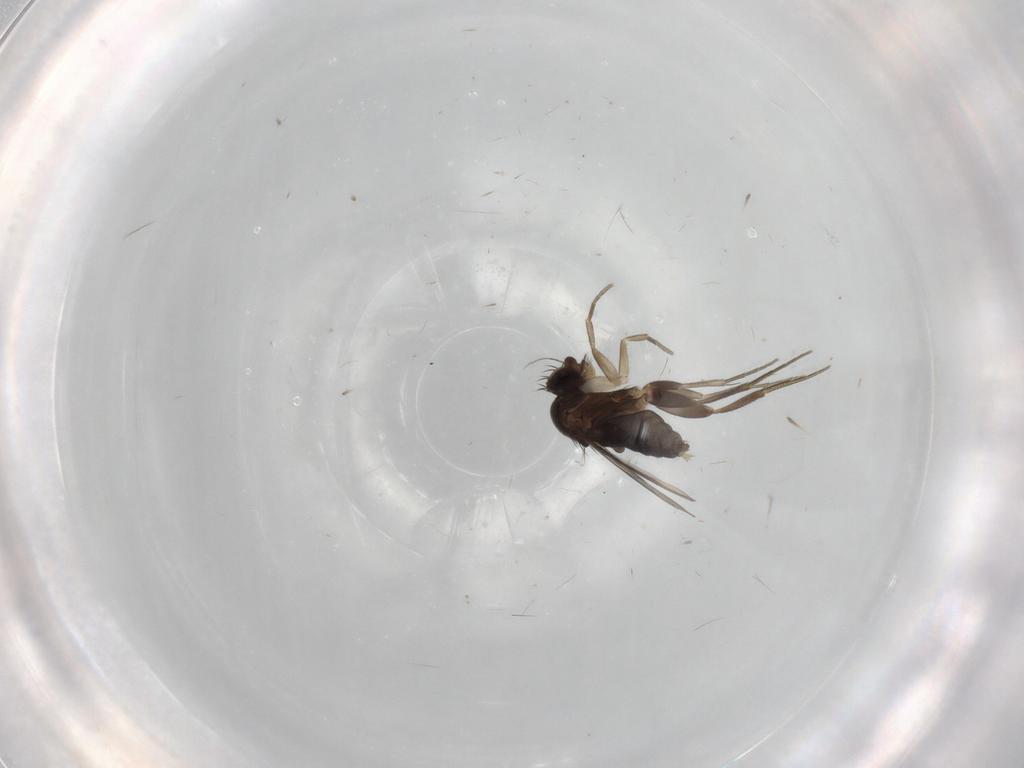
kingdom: Animalia
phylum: Arthropoda
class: Insecta
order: Diptera
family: Phoridae
